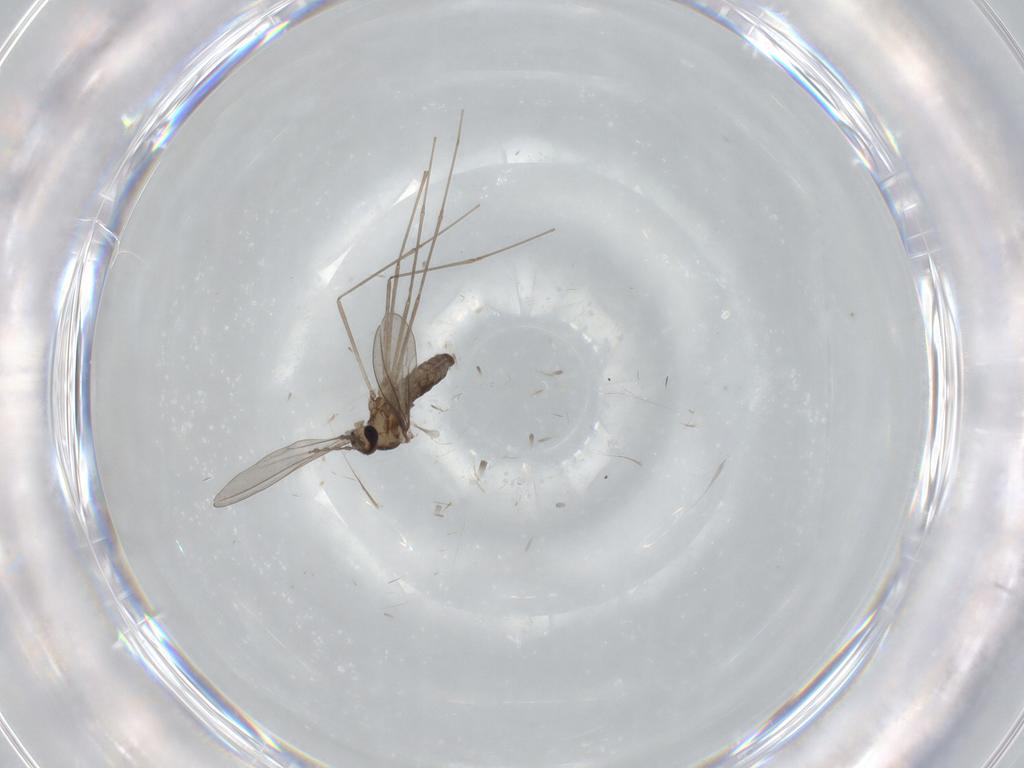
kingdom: Animalia
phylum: Arthropoda
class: Insecta
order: Diptera
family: Cecidomyiidae
